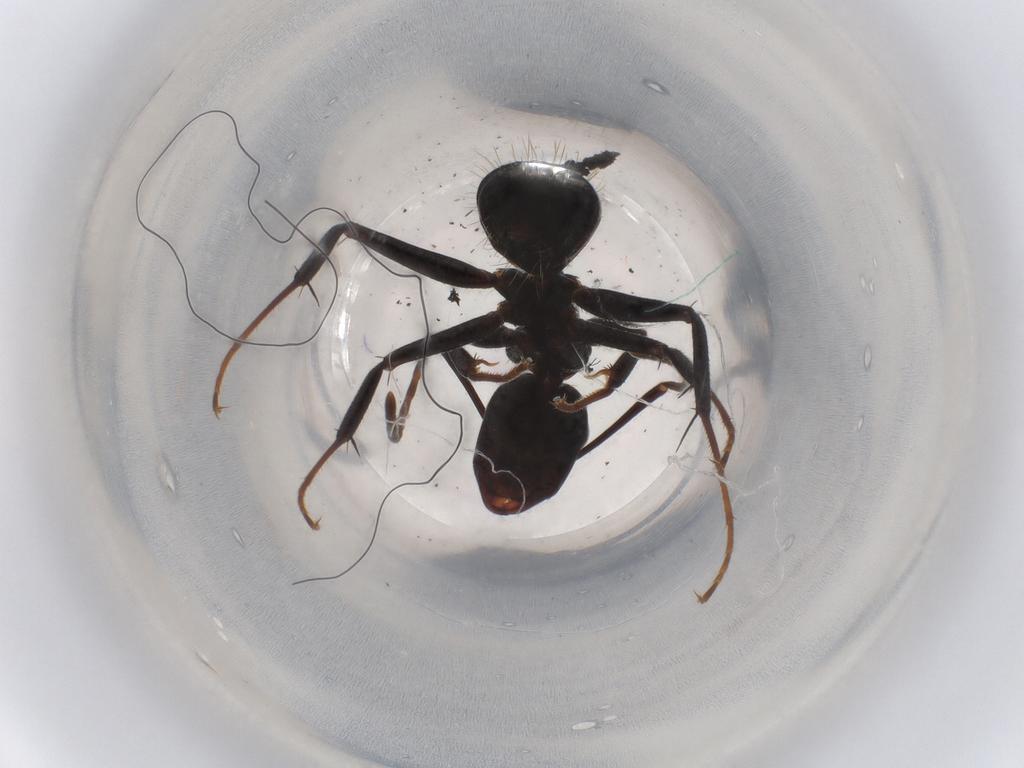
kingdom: Animalia
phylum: Arthropoda
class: Insecta
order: Hymenoptera
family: Formicidae
